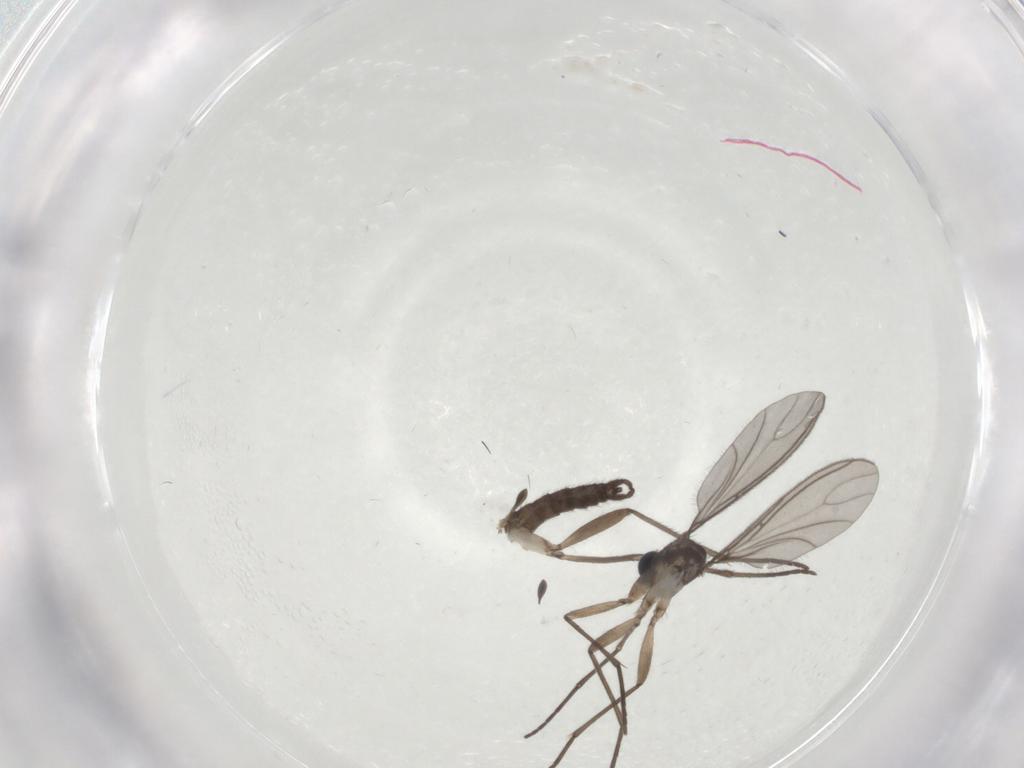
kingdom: Animalia
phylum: Arthropoda
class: Insecta
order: Diptera
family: Sciaridae
